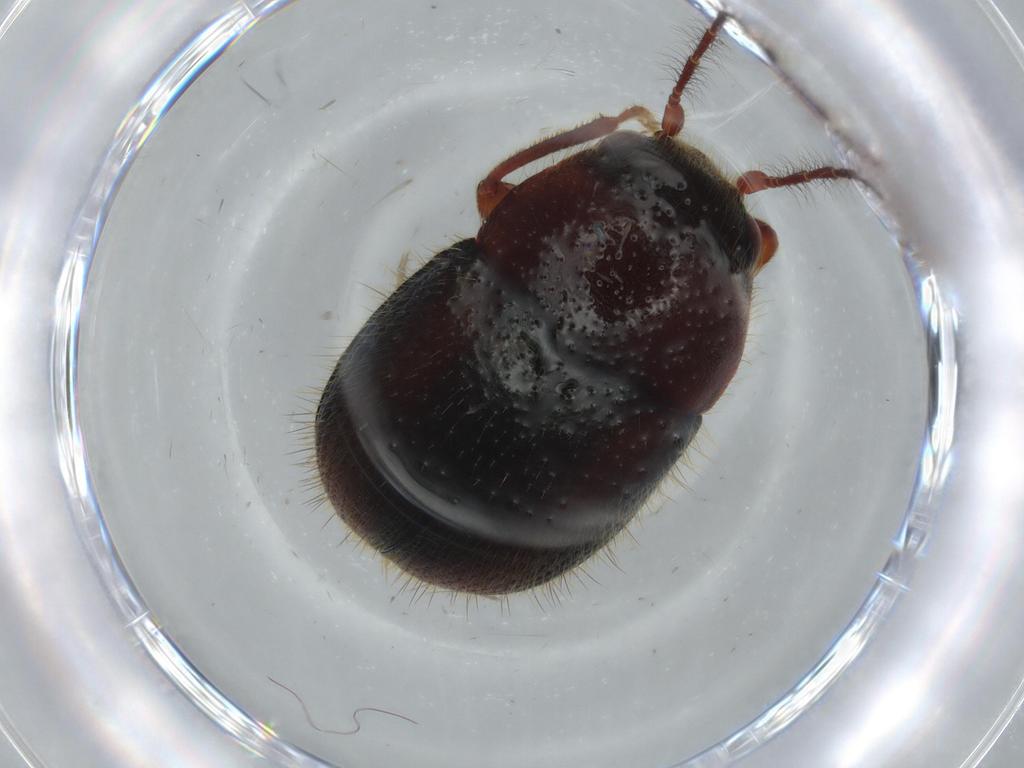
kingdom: Animalia
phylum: Arthropoda
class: Insecta
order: Coleoptera
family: Artematopodidae
